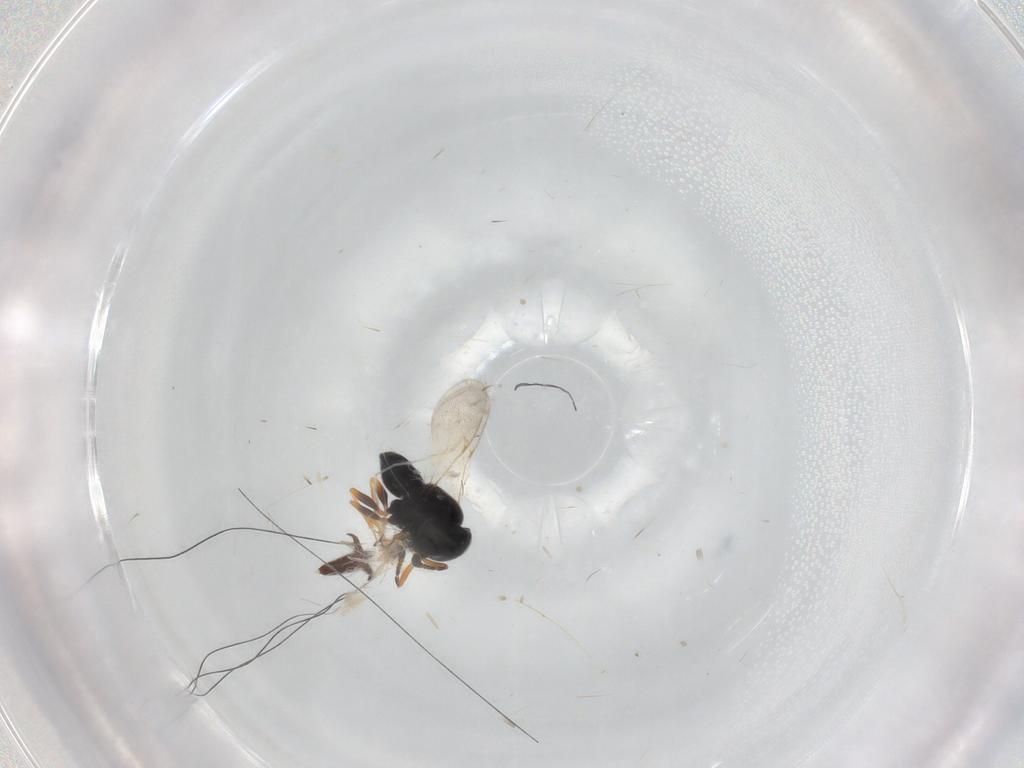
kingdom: Animalia
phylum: Arthropoda
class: Insecta
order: Hymenoptera
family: Scelionidae
